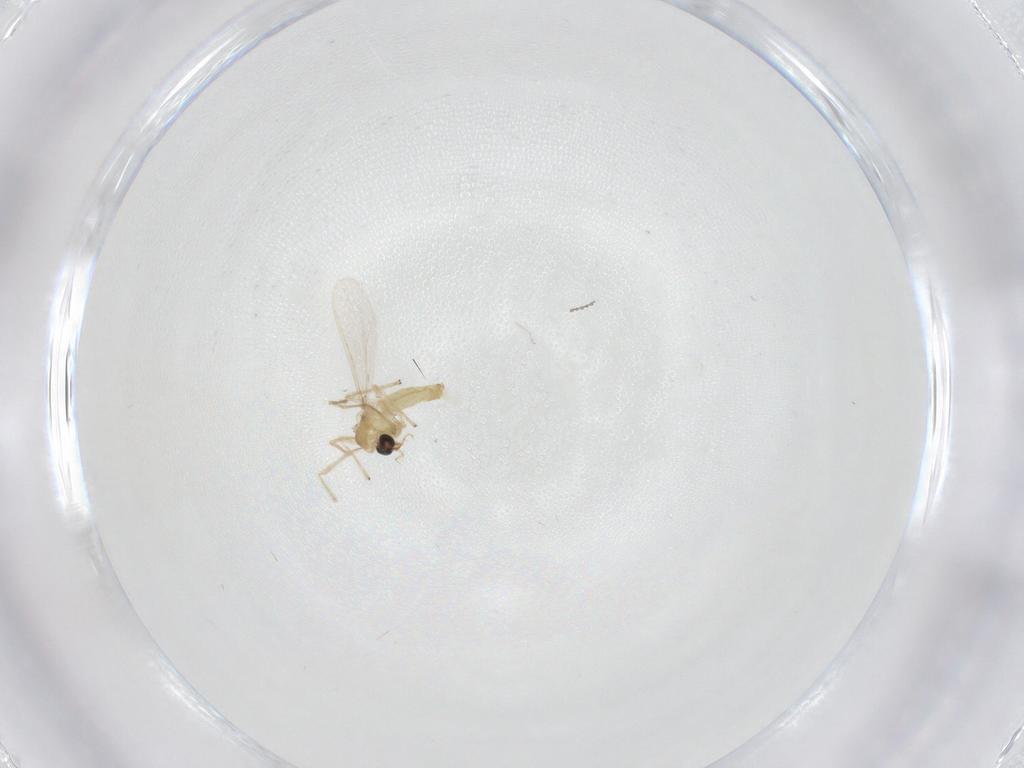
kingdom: Animalia
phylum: Arthropoda
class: Insecta
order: Diptera
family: Chironomidae
